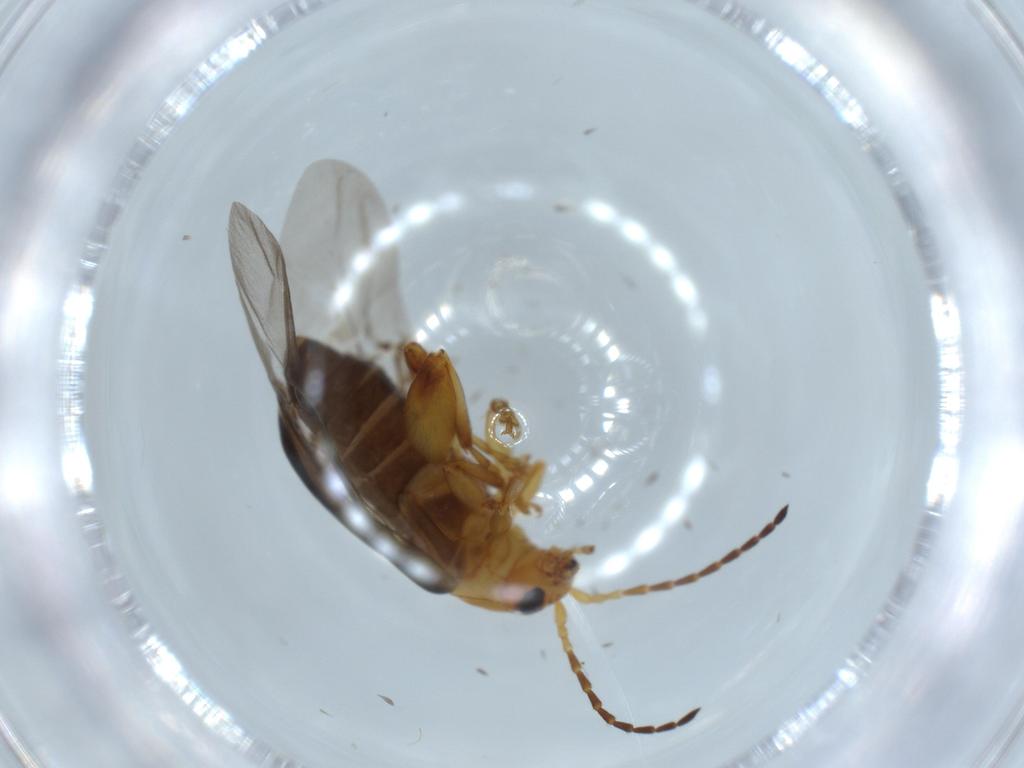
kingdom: Animalia
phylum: Arthropoda
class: Insecta
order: Coleoptera
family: Chrysomelidae
